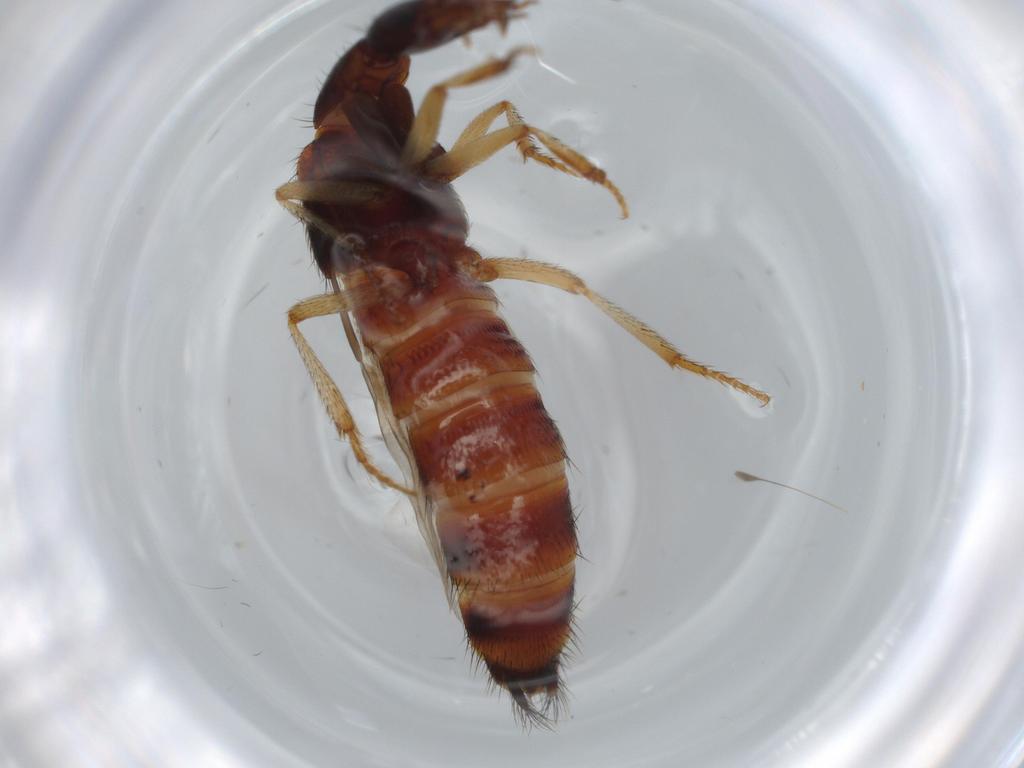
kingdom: Animalia
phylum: Arthropoda
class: Insecta
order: Coleoptera
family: Staphylinidae
